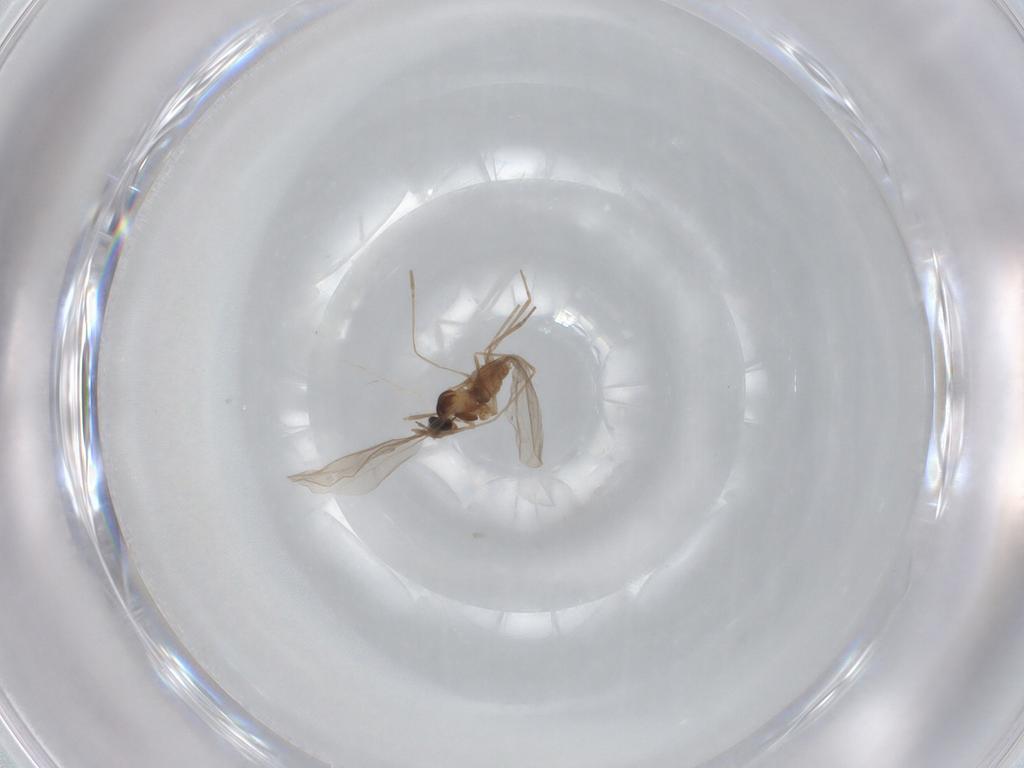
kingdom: Animalia
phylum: Arthropoda
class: Insecta
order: Diptera
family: Cecidomyiidae
